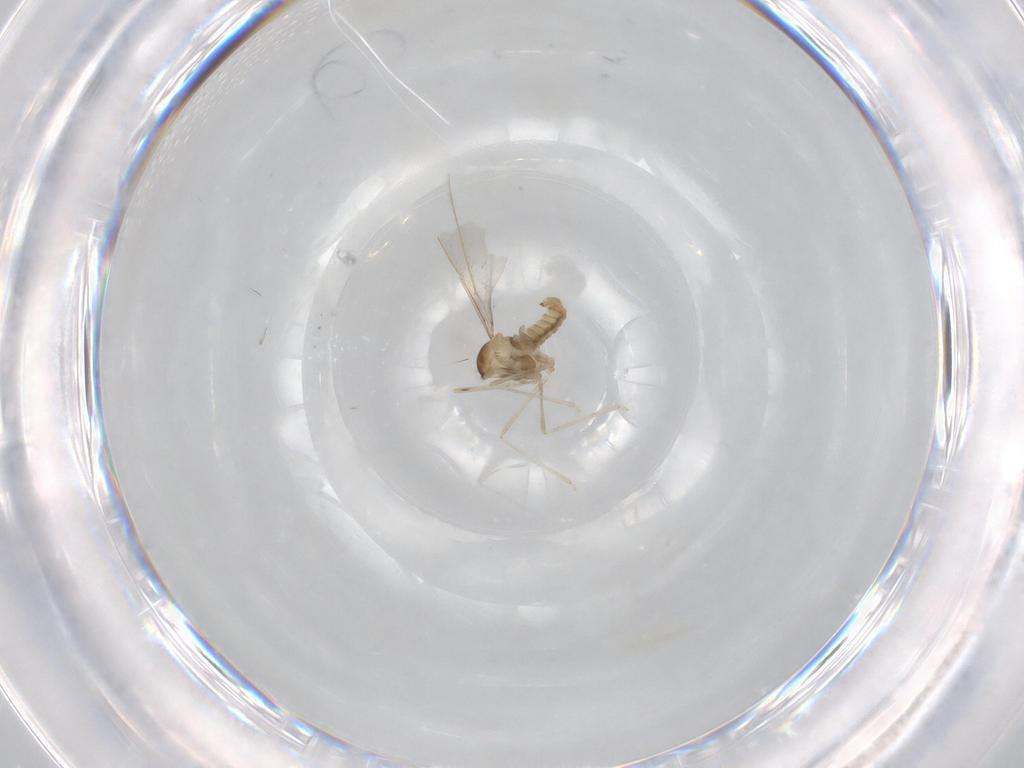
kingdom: Animalia
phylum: Arthropoda
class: Insecta
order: Diptera
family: Cecidomyiidae
